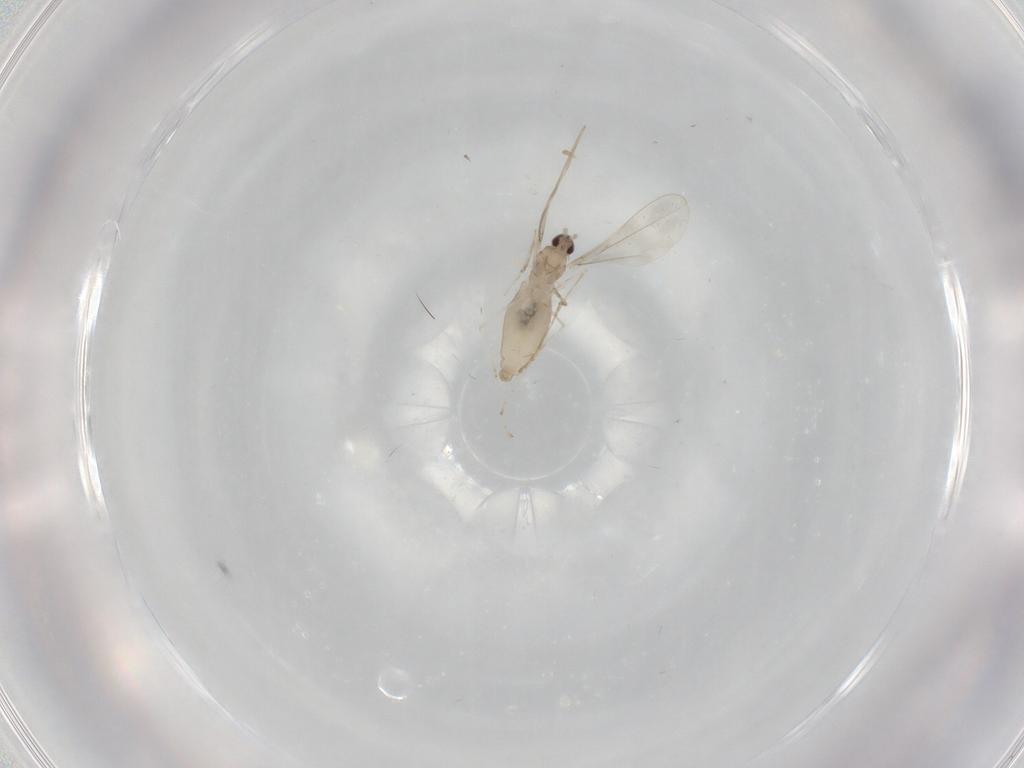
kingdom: Animalia
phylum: Arthropoda
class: Insecta
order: Diptera
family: Cecidomyiidae
